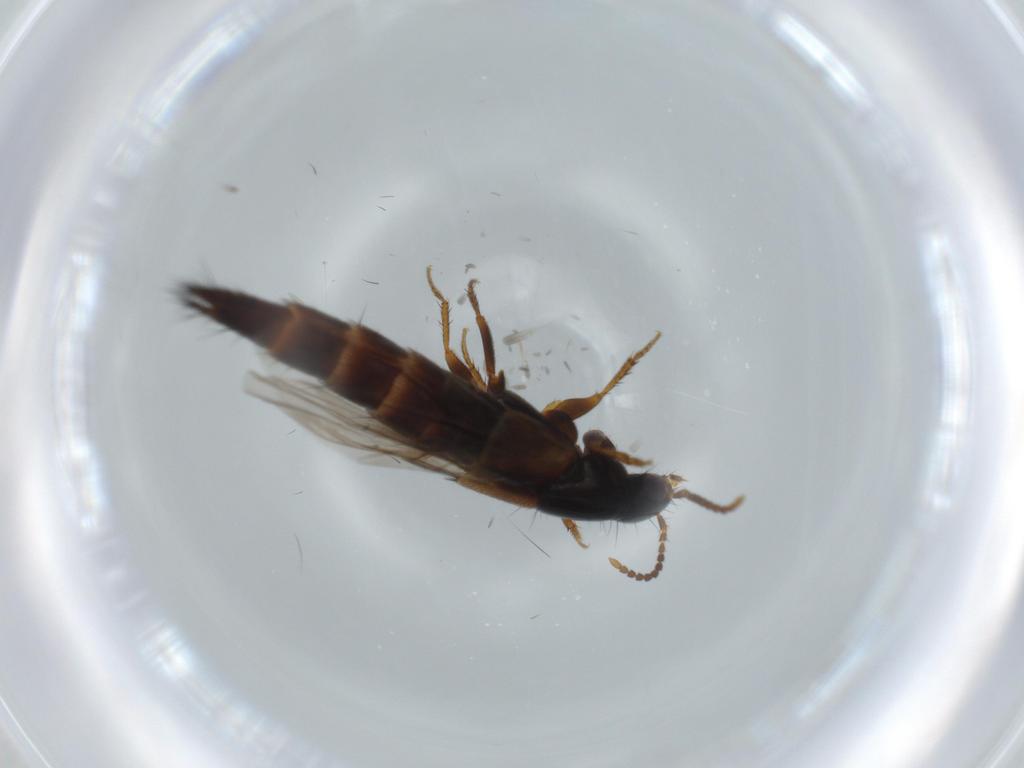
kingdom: Animalia
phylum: Arthropoda
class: Insecta
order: Coleoptera
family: Staphylinidae
